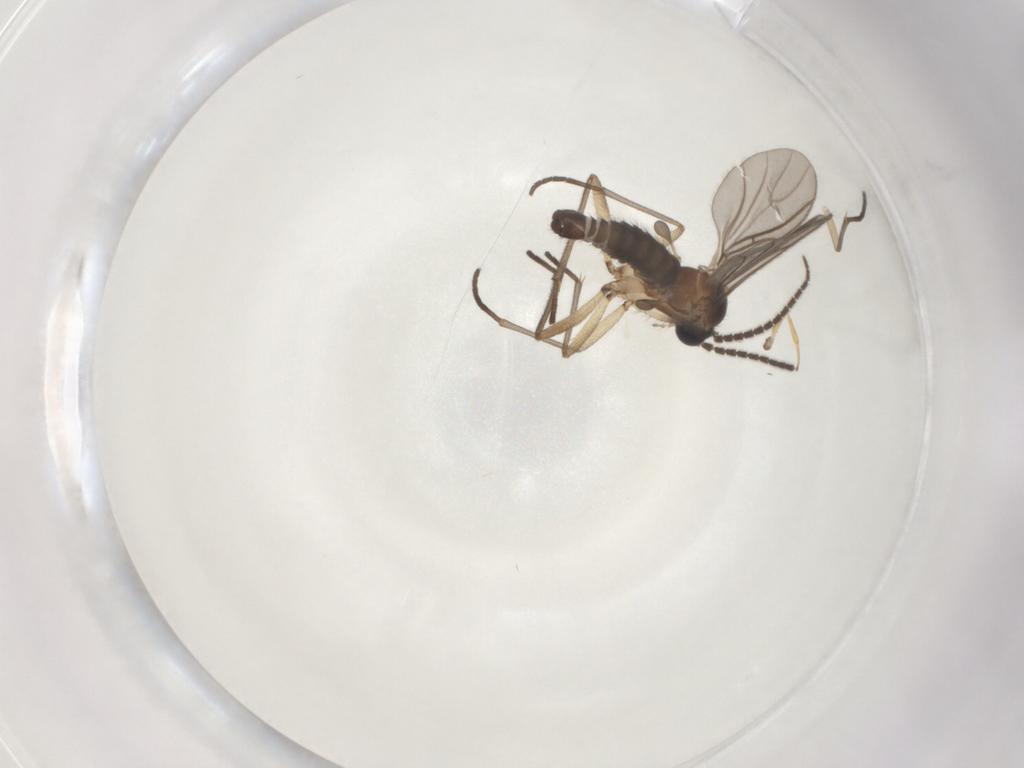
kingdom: Animalia
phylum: Arthropoda
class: Insecta
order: Diptera
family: Sciaridae
